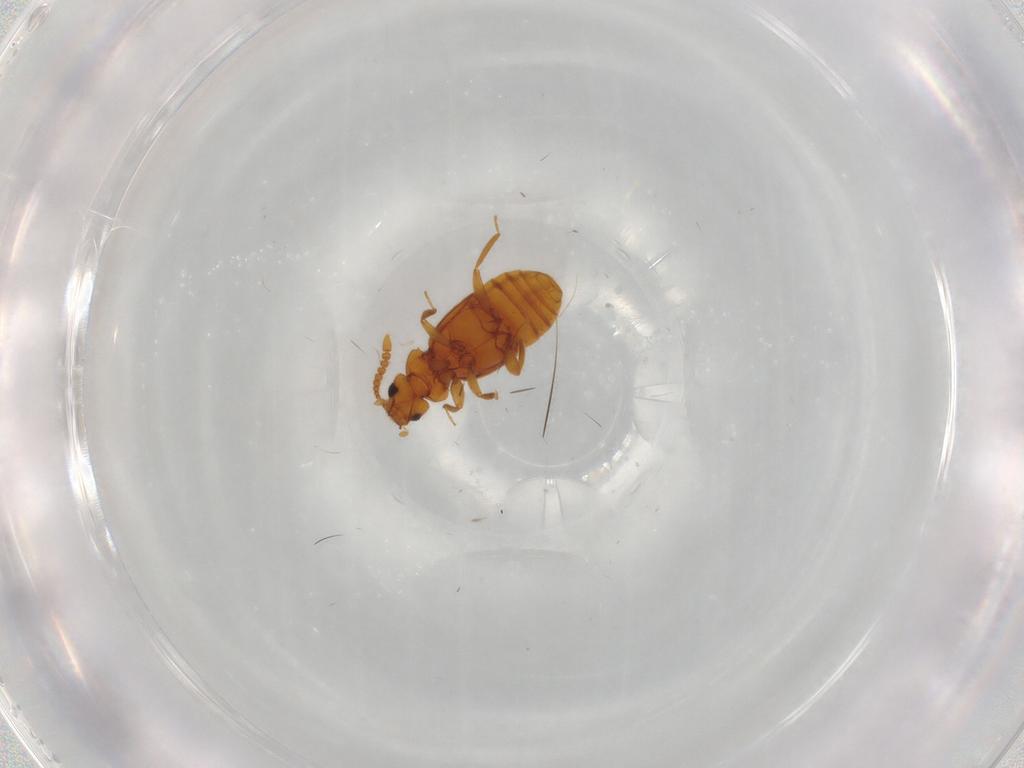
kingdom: Animalia
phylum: Arthropoda
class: Insecta
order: Coleoptera
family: Staphylinidae
